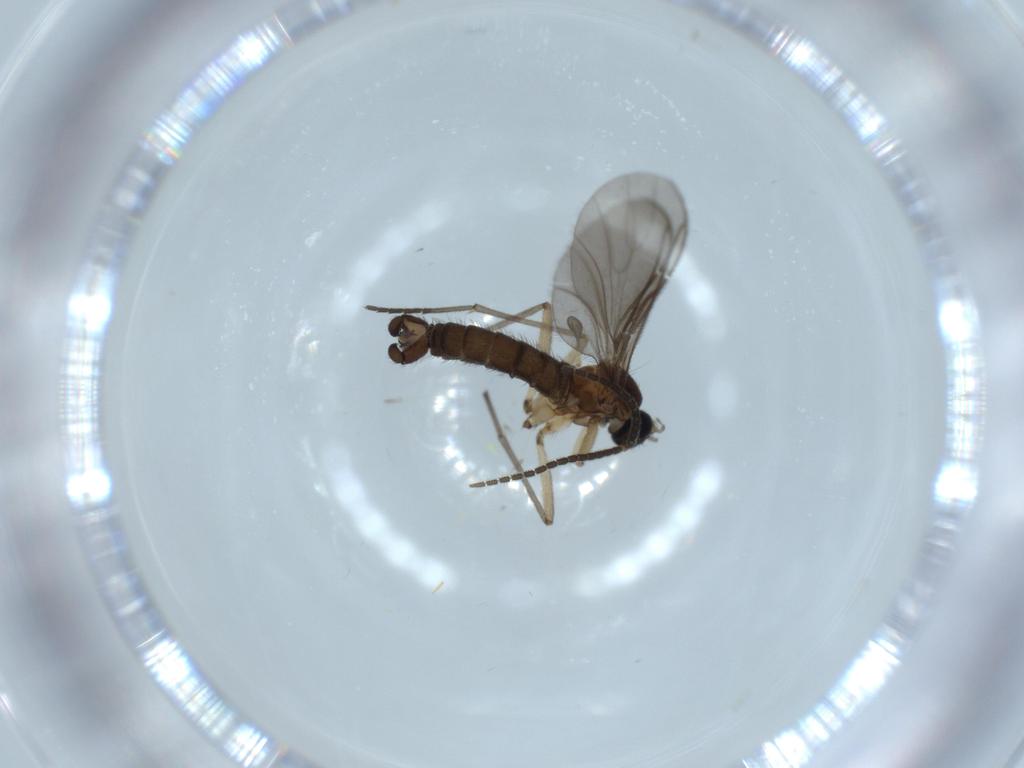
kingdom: Animalia
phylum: Arthropoda
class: Insecta
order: Diptera
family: Sciaridae
